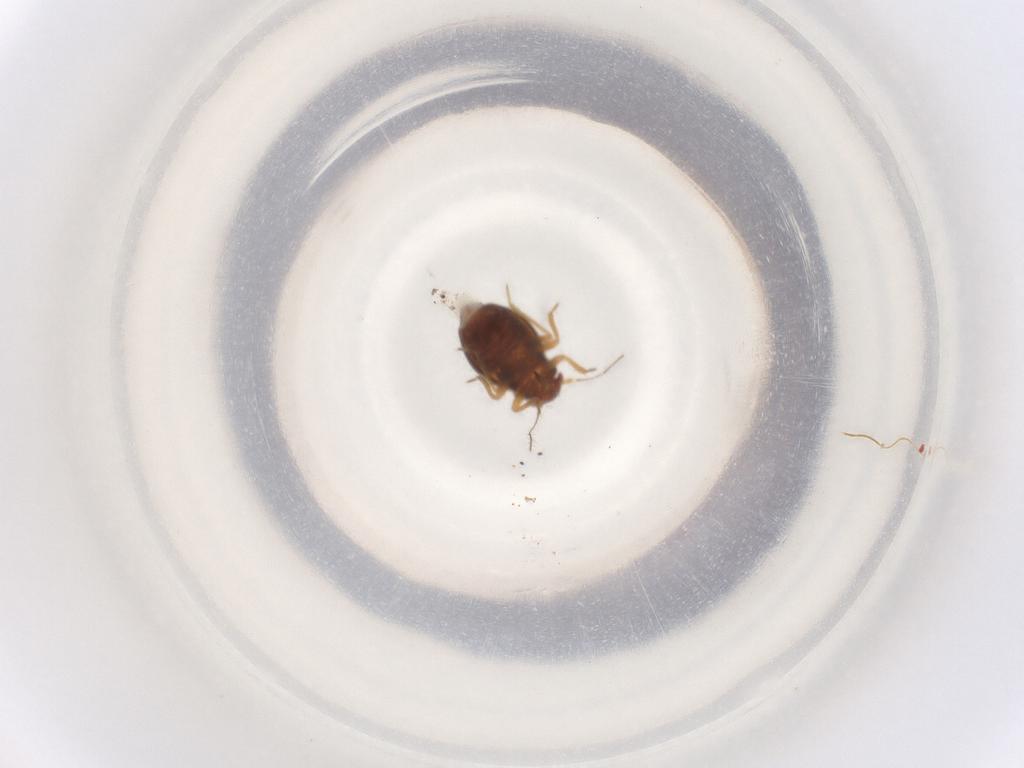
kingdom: Animalia
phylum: Arthropoda
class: Insecta
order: Hemiptera
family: Schizopteridae
